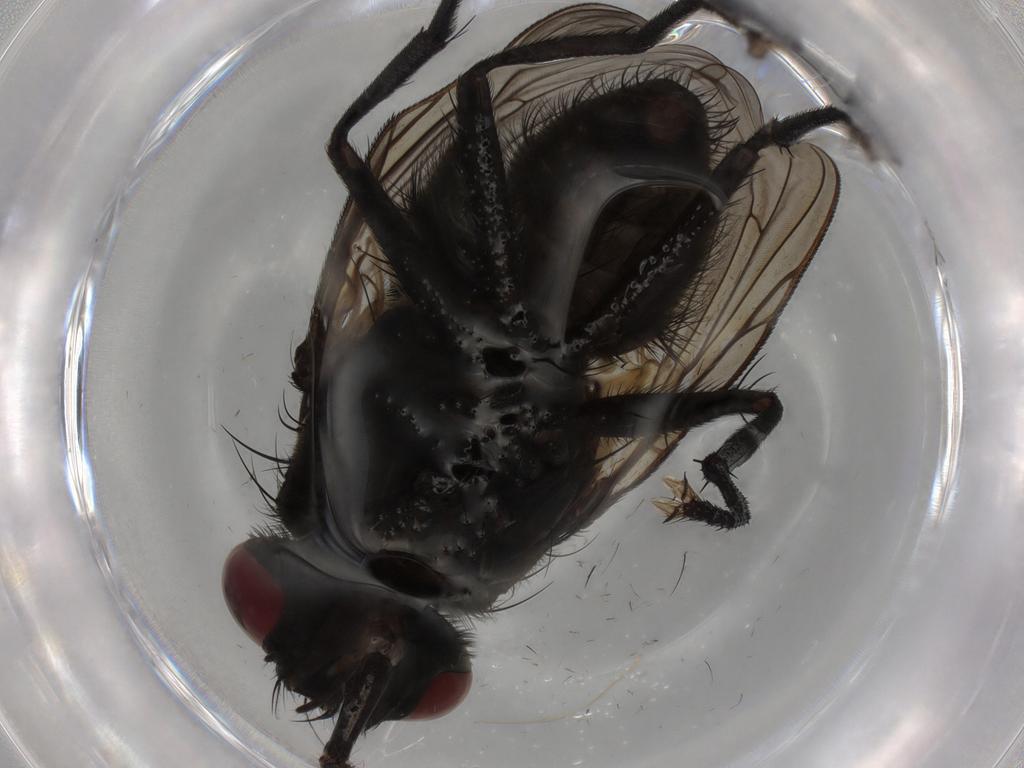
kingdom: Animalia
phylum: Arthropoda
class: Insecta
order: Diptera
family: Muscidae
